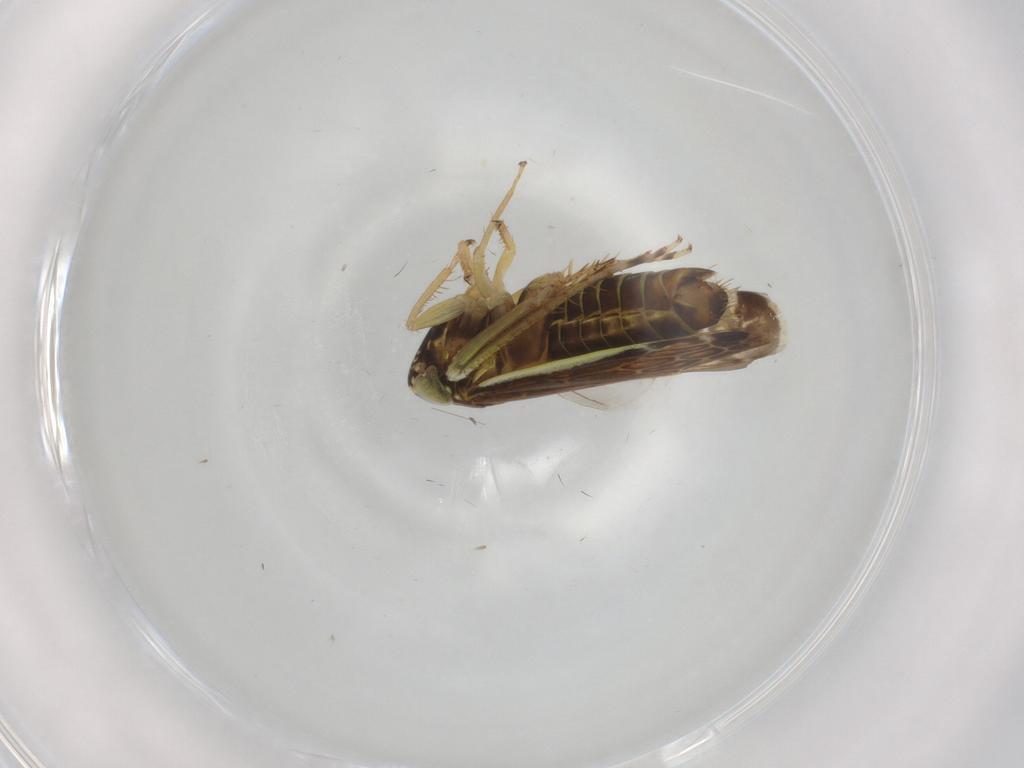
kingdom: Animalia
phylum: Arthropoda
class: Insecta
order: Hemiptera
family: Cicadellidae
